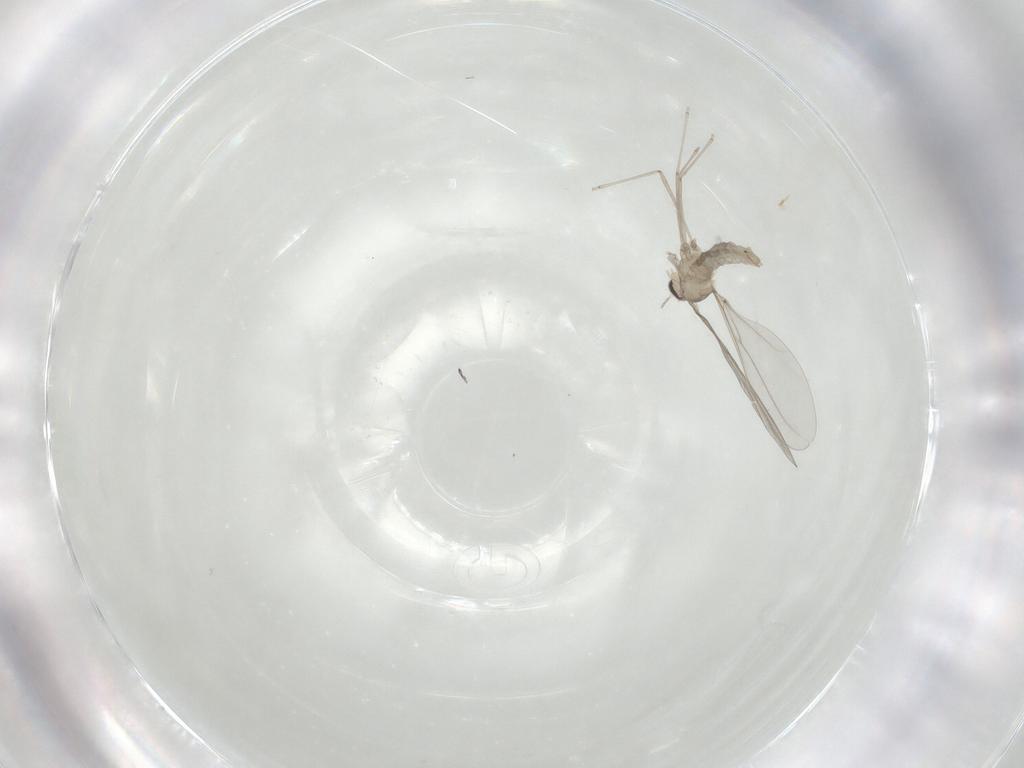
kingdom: Animalia
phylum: Arthropoda
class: Insecta
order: Diptera
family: Cecidomyiidae
